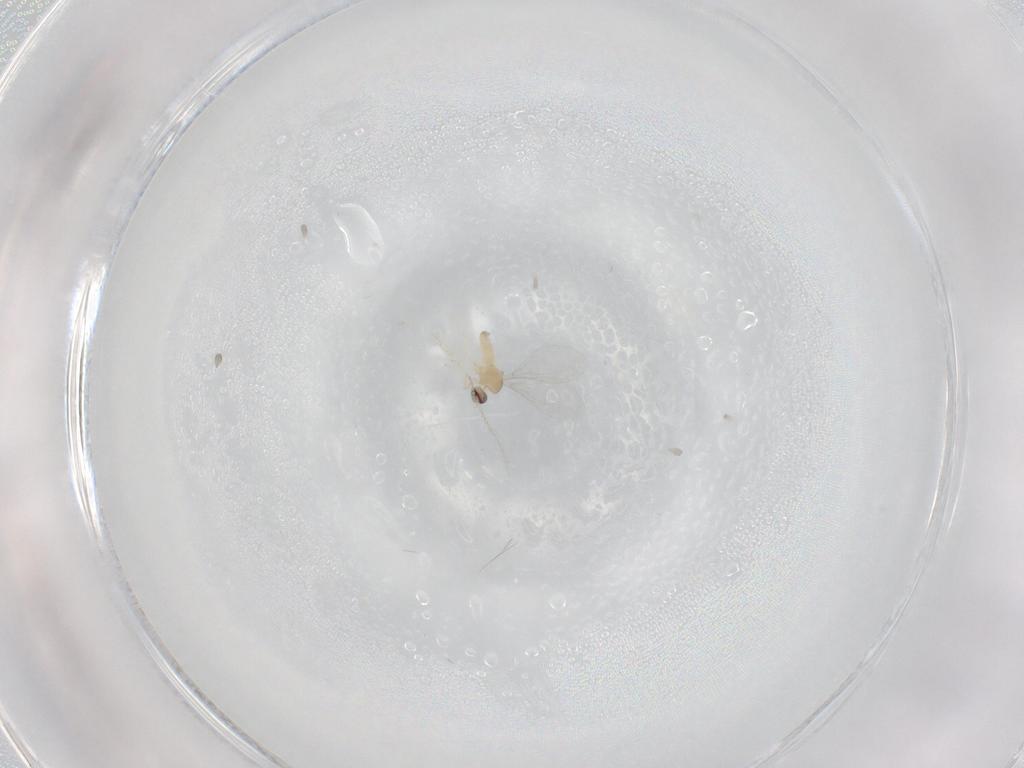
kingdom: Animalia
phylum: Arthropoda
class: Insecta
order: Diptera
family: Cecidomyiidae
